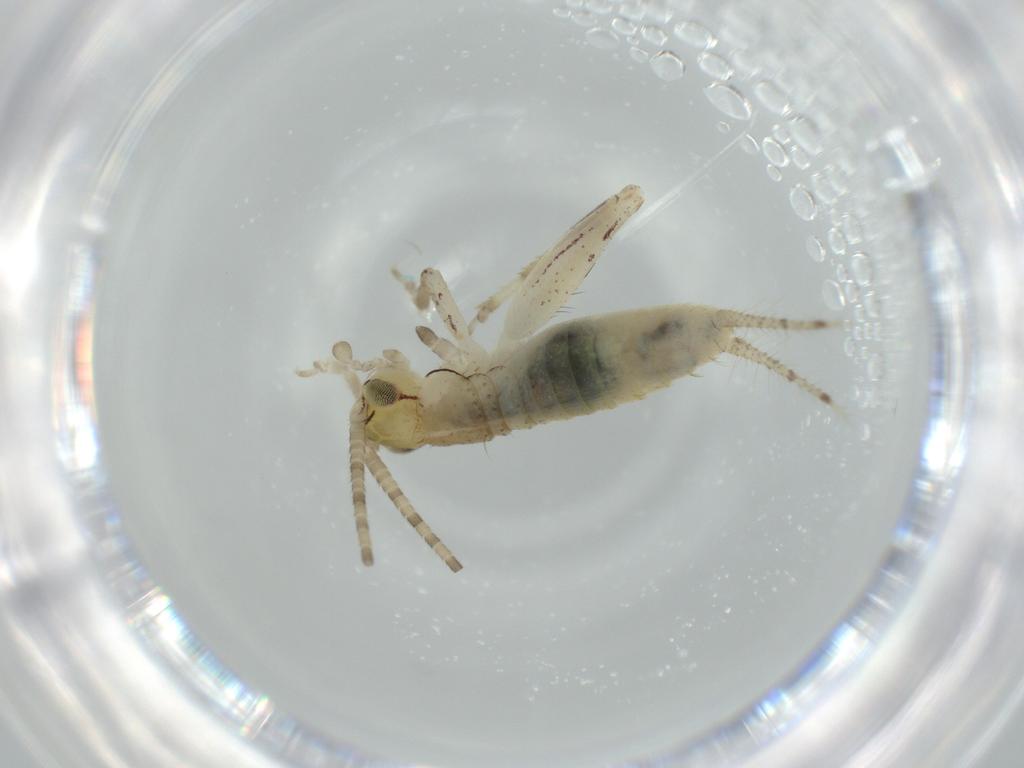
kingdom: Animalia
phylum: Arthropoda
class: Insecta
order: Orthoptera
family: Gryllidae
